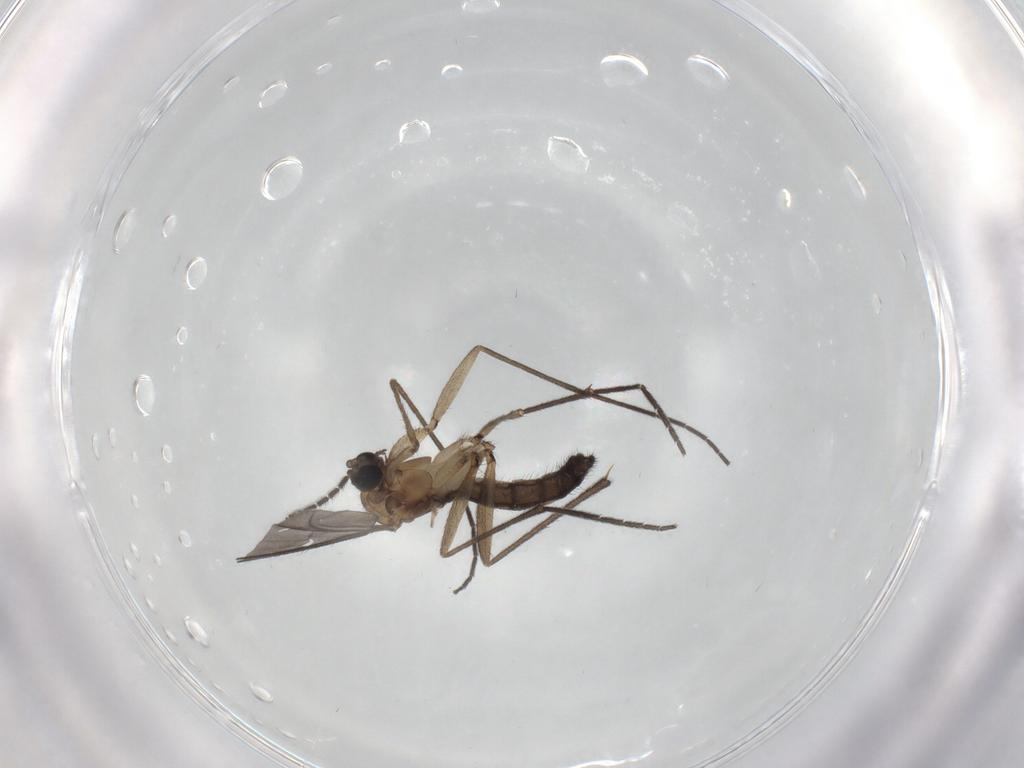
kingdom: Animalia
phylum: Arthropoda
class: Insecta
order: Diptera
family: Sciaridae
